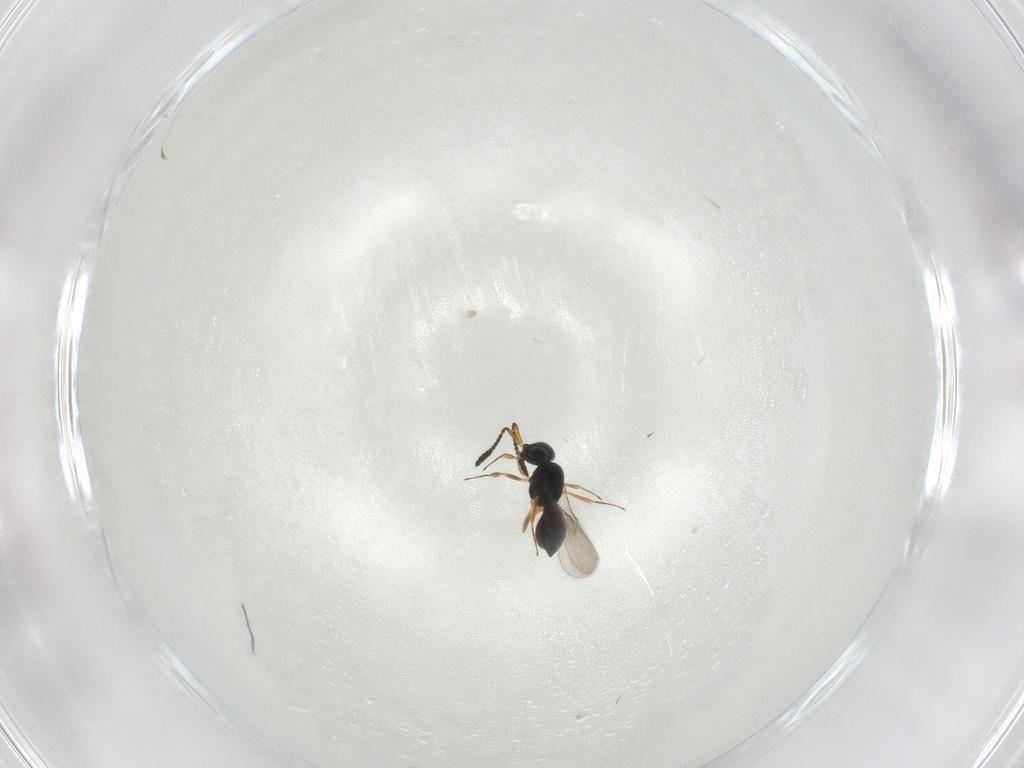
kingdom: Animalia
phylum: Arthropoda
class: Insecta
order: Hymenoptera
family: Scelionidae
